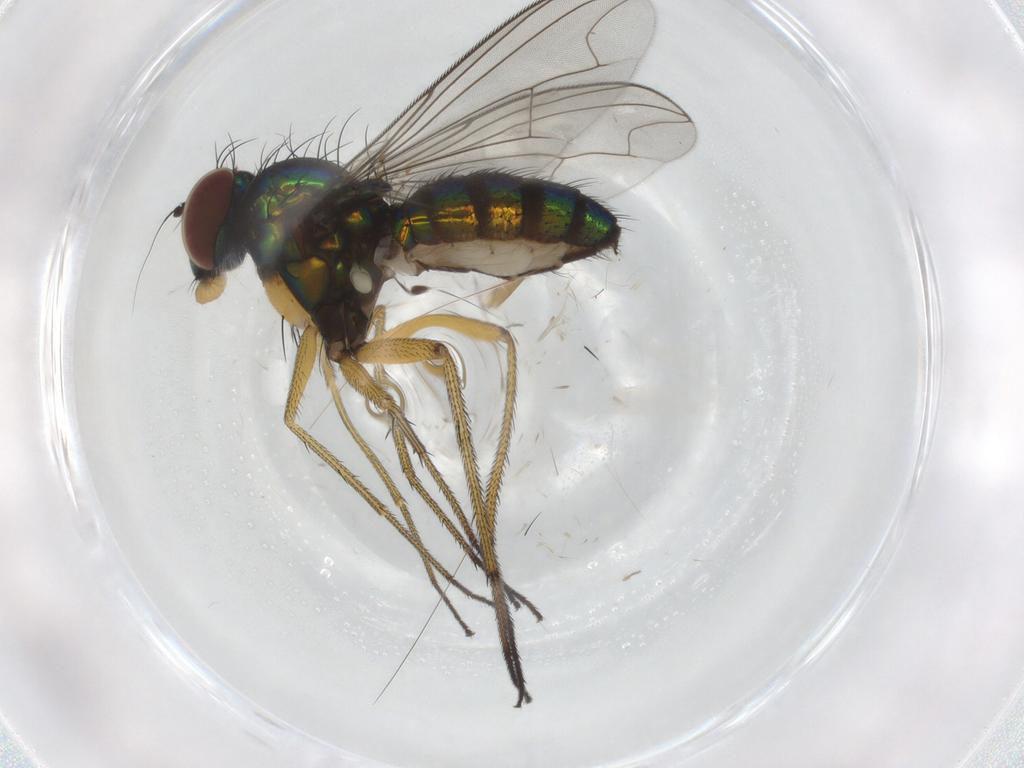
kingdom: Animalia
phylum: Arthropoda
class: Insecta
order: Diptera
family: Dolichopodidae
